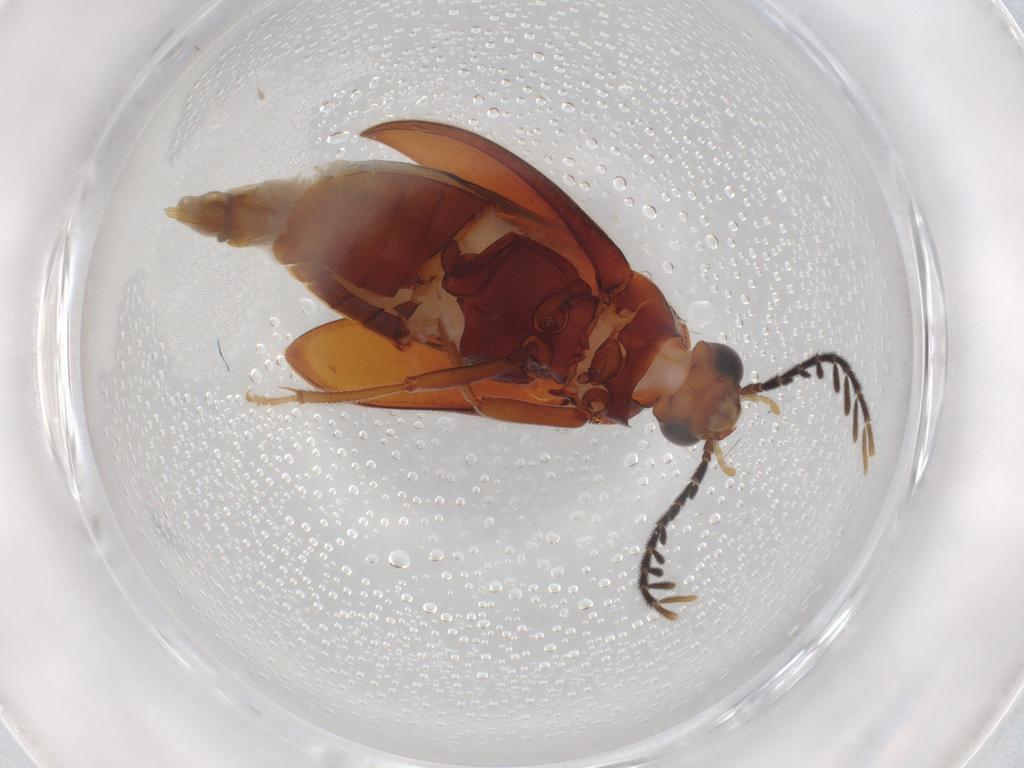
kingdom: Animalia
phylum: Arthropoda
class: Insecta
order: Coleoptera
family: Ptilodactylidae
